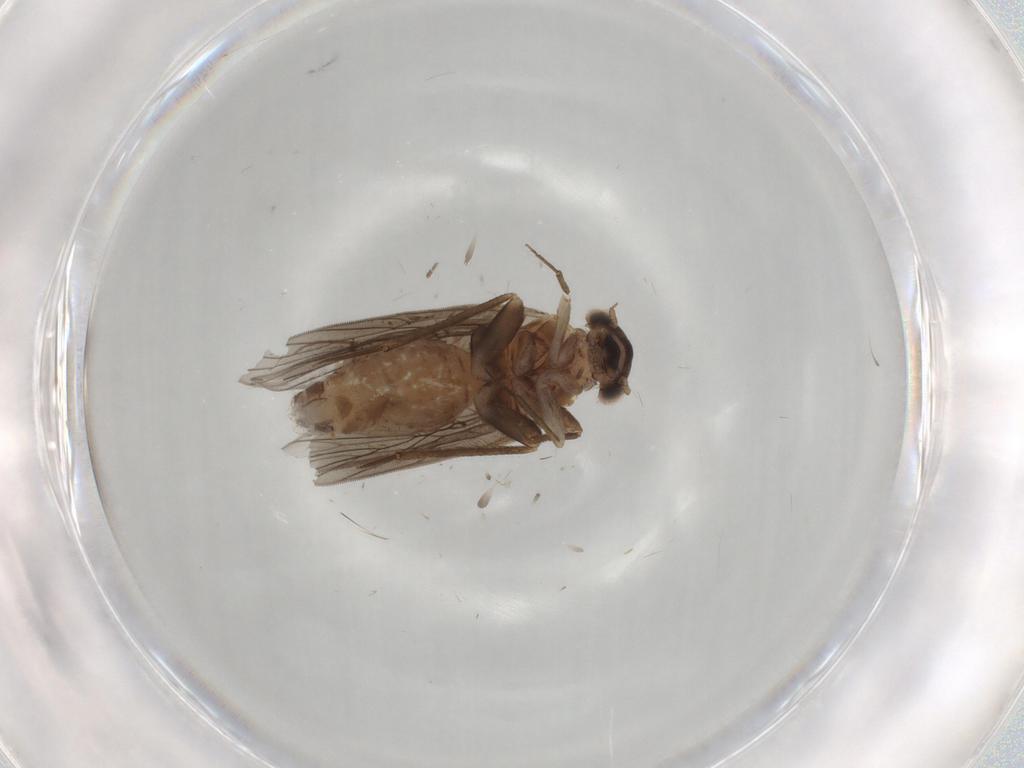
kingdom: Animalia
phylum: Arthropoda
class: Insecta
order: Psocodea
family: Lepidopsocidae
